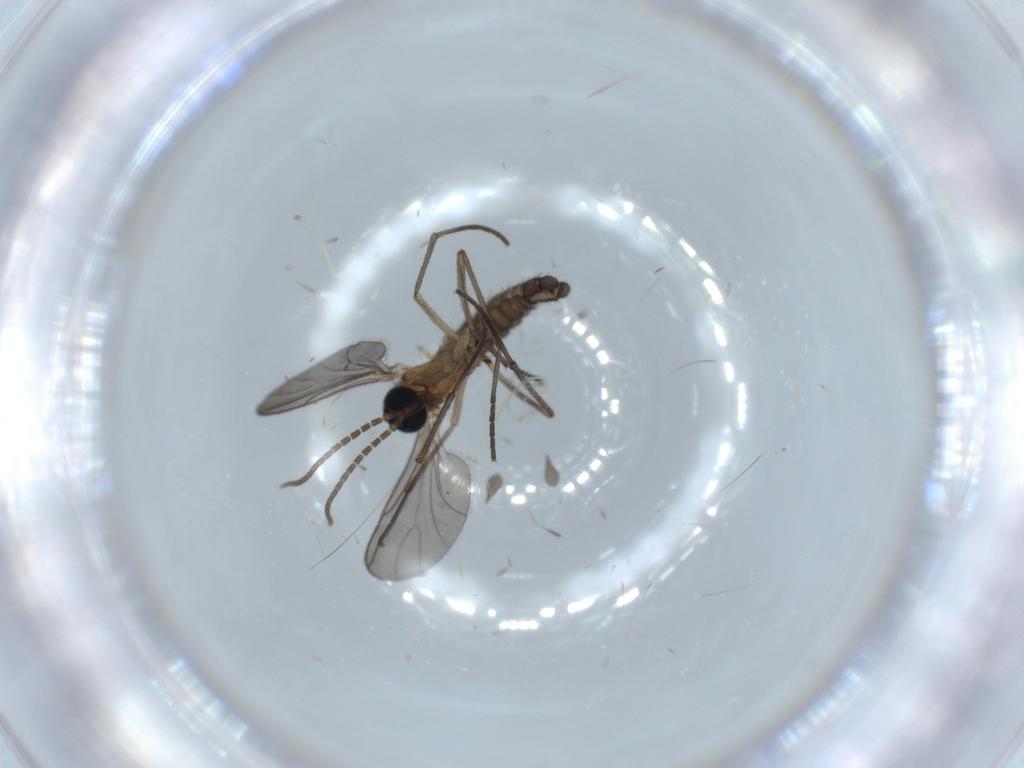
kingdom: Animalia
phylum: Arthropoda
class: Insecta
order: Diptera
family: Sciaridae
